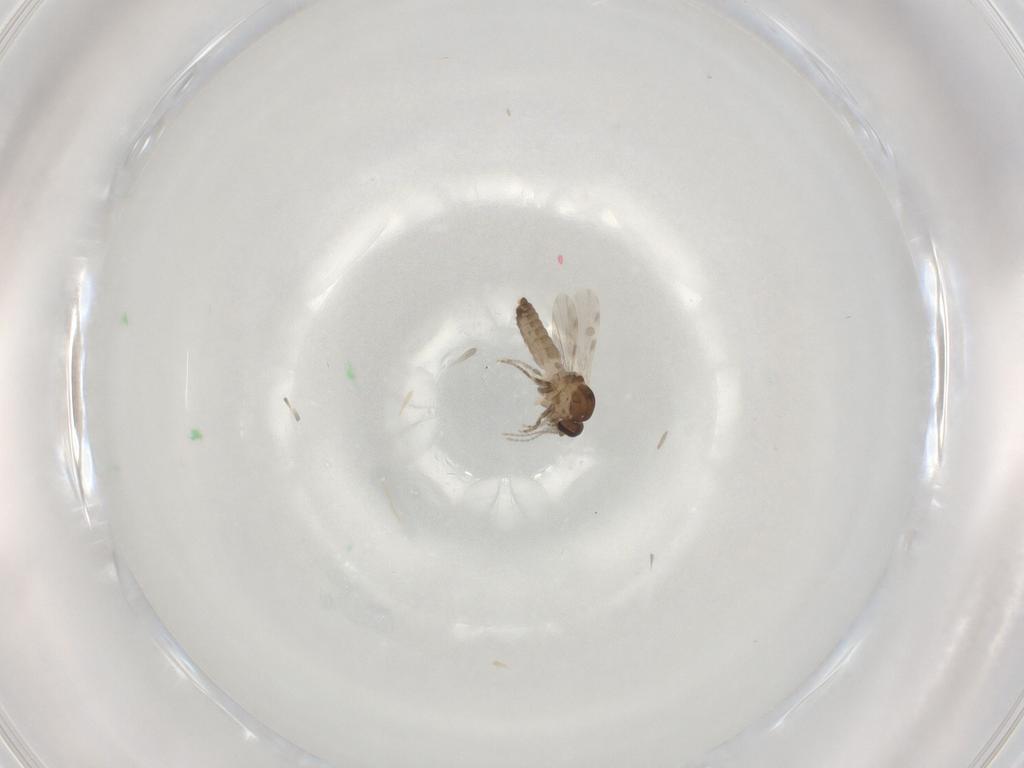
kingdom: Animalia
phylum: Arthropoda
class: Insecta
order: Diptera
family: Ceratopogonidae
